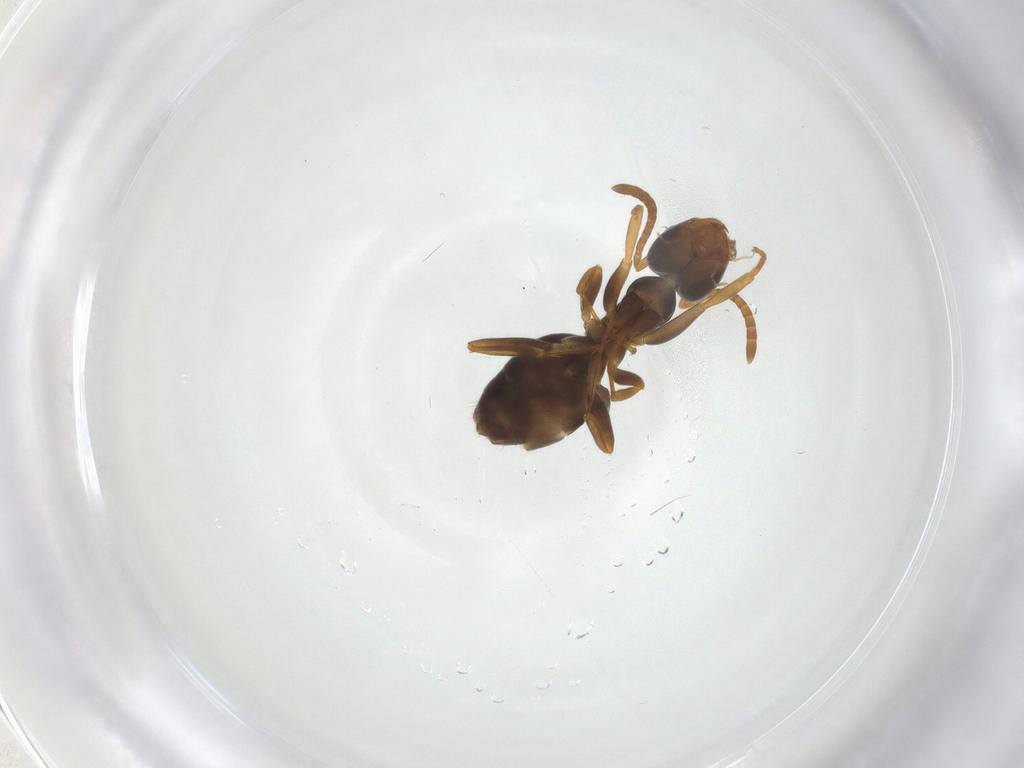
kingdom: Animalia
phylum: Arthropoda
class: Insecta
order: Hymenoptera
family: Formicidae
